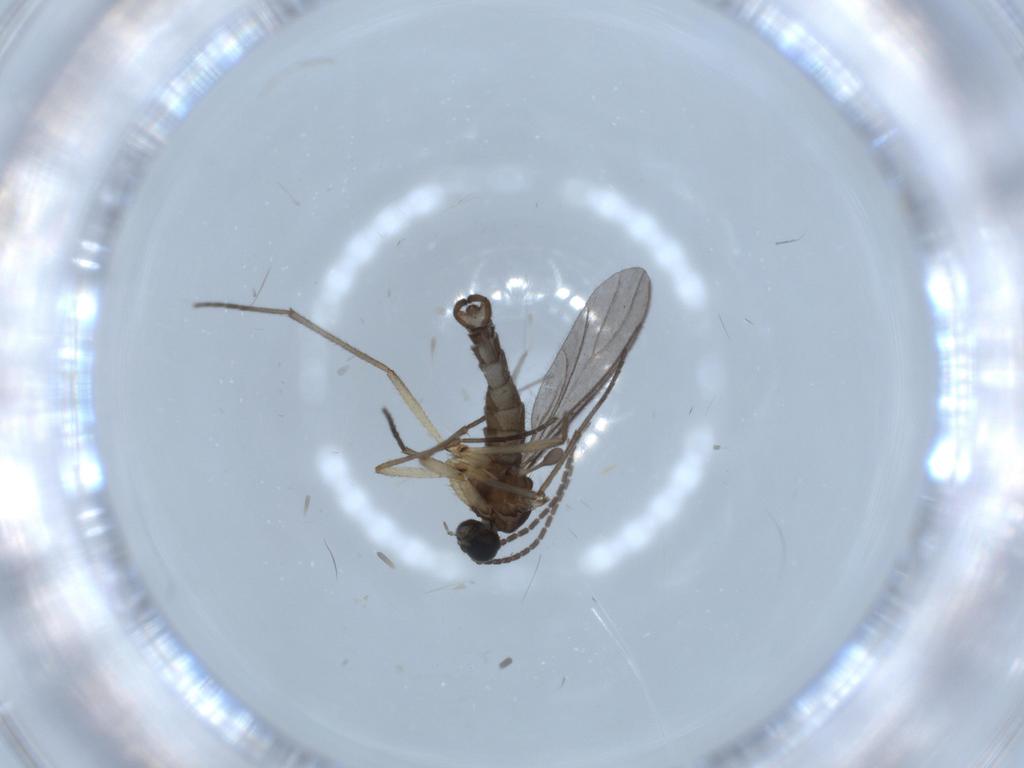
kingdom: Animalia
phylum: Arthropoda
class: Insecta
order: Diptera
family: Sciaridae
